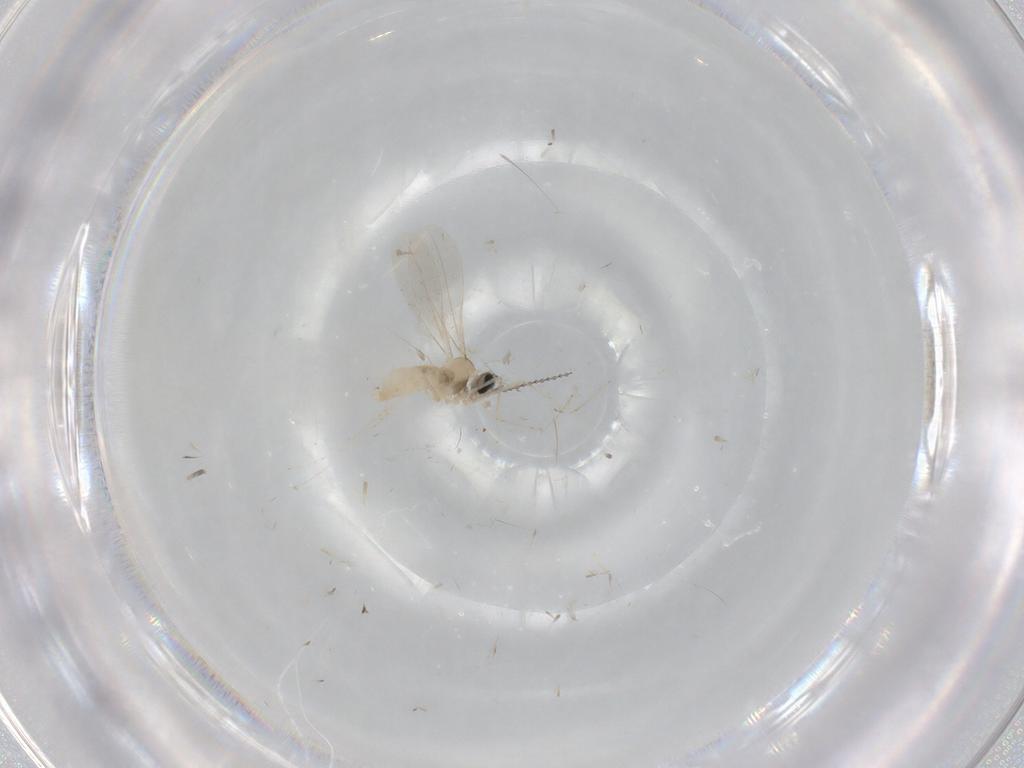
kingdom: Animalia
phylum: Arthropoda
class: Insecta
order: Diptera
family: Cecidomyiidae
